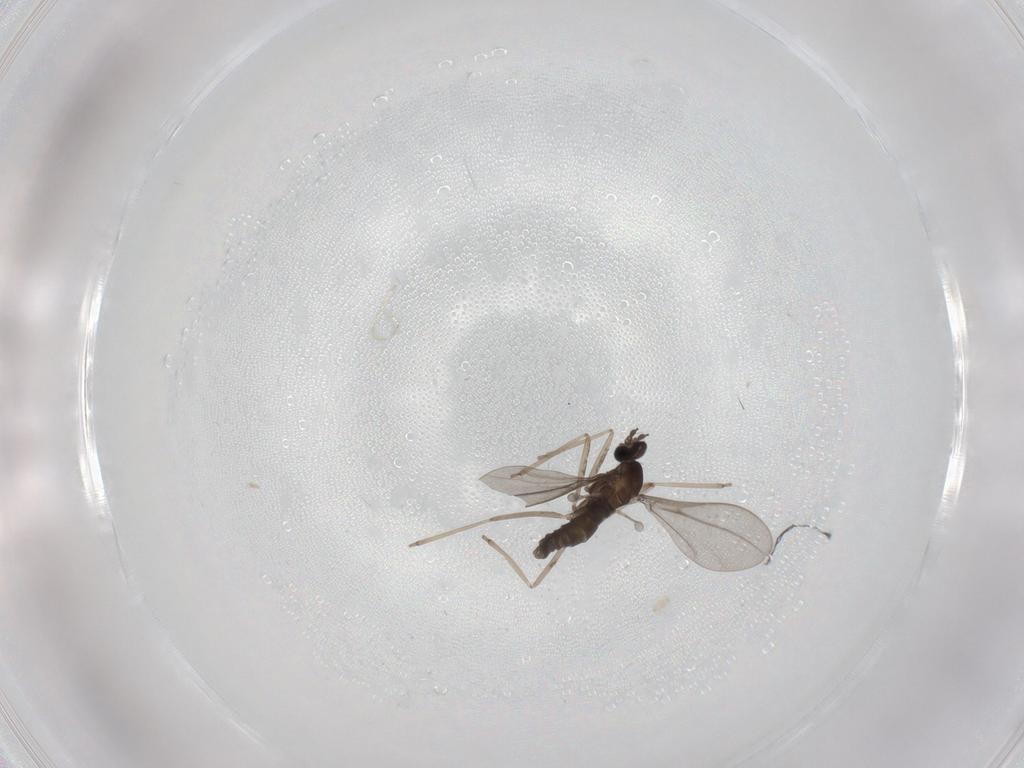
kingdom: Animalia
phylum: Arthropoda
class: Insecta
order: Diptera
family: Cecidomyiidae
